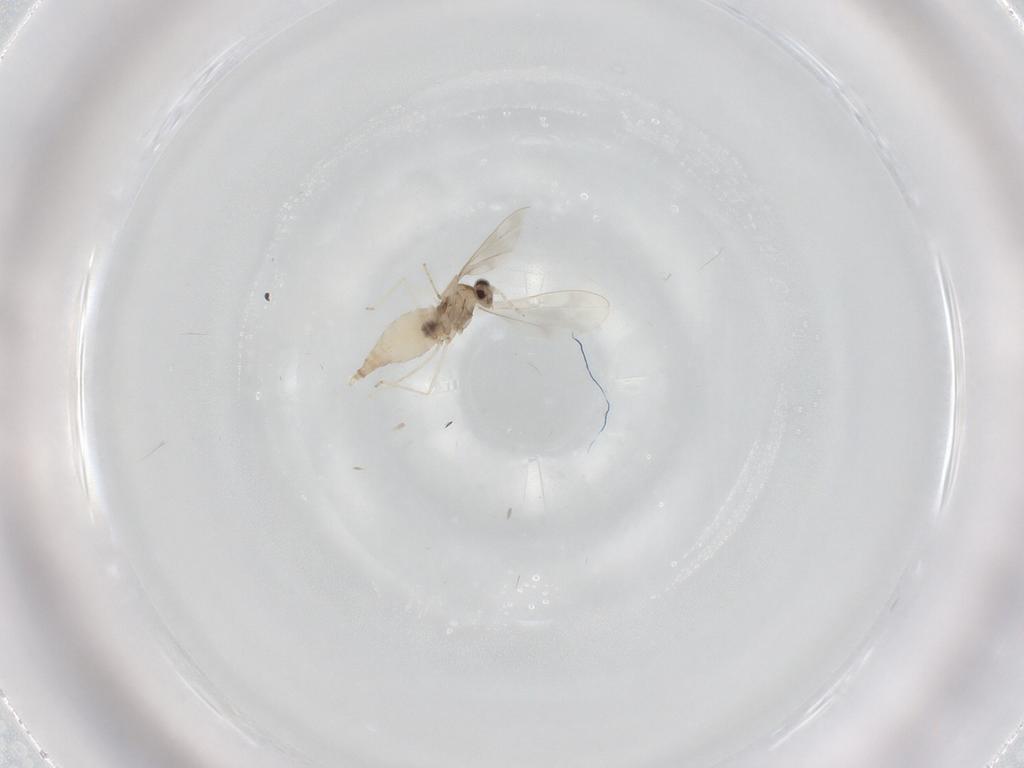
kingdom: Animalia
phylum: Arthropoda
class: Insecta
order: Diptera
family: Cecidomyiidae
